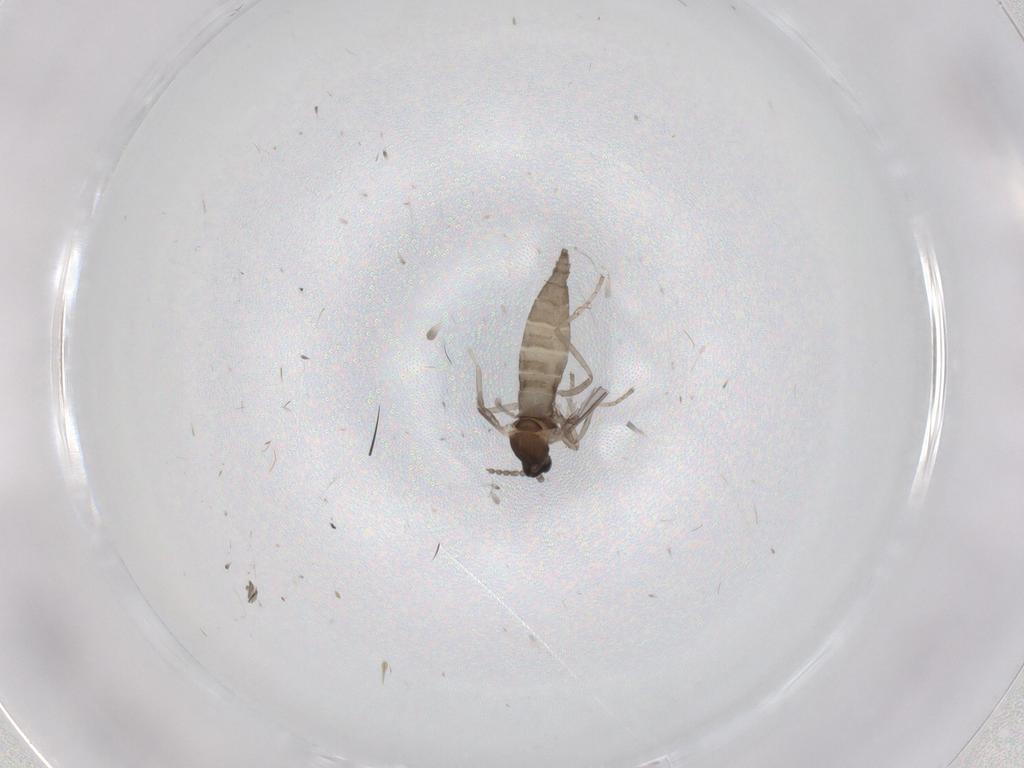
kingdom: Animalia
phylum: Arthropoda
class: Insecta
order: Diptera
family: Cecidomyiidae
